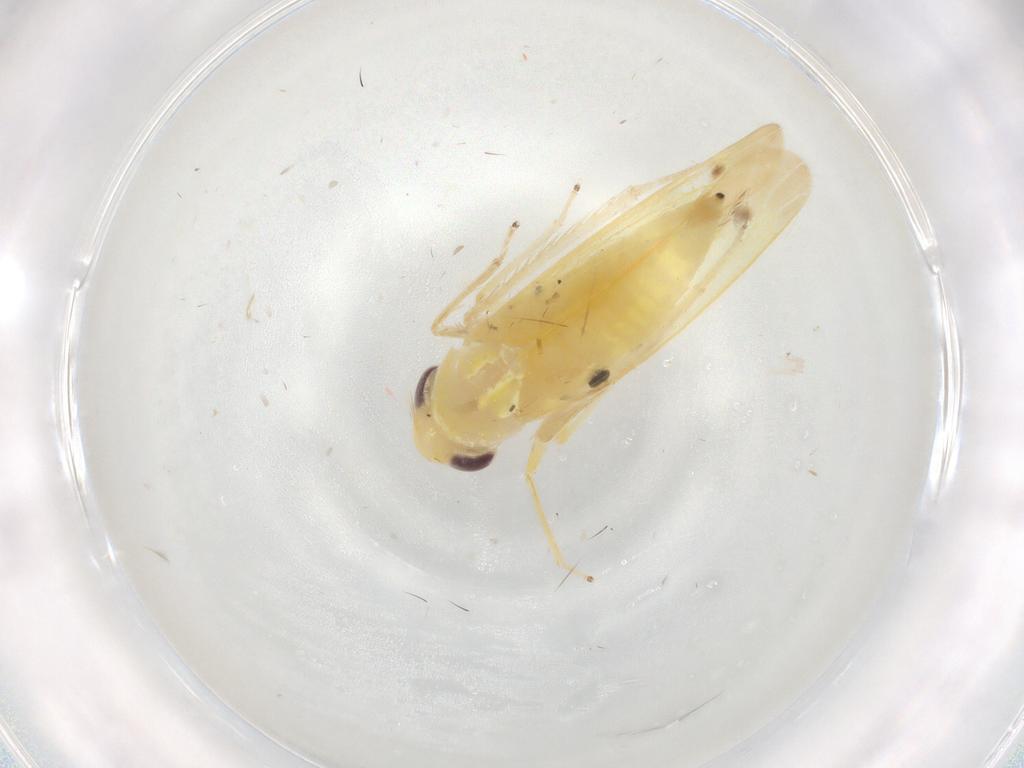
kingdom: Animalia
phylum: Arthropoda
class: Insecta
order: Hemiptera
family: Cicadellidae
